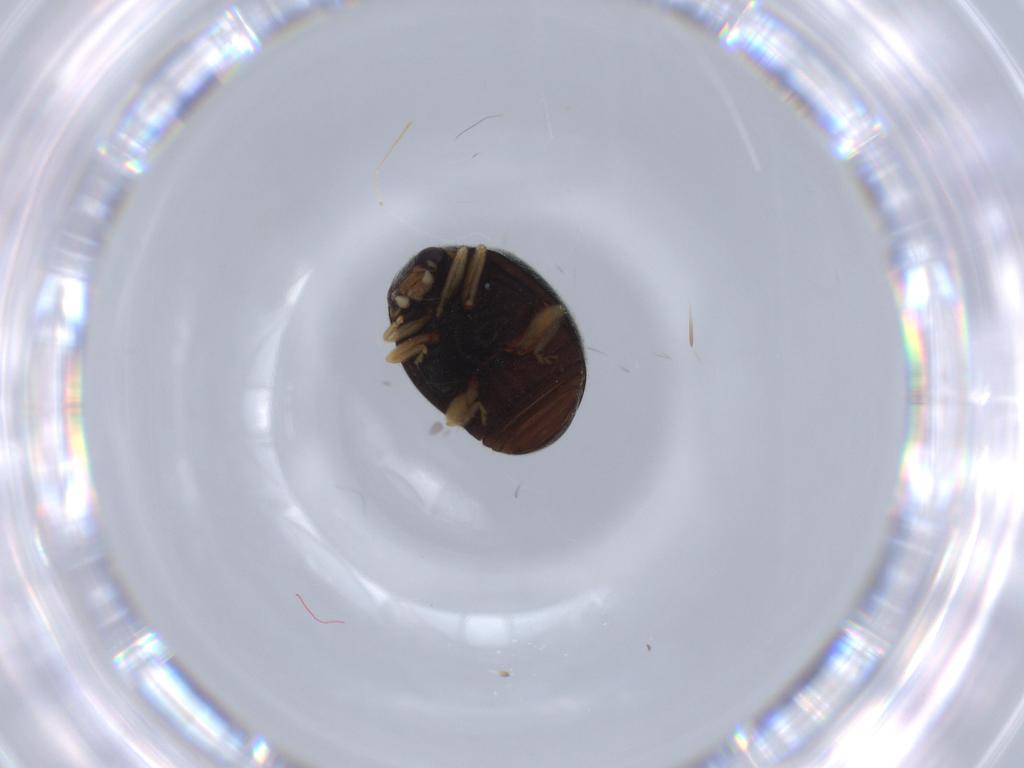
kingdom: Animalia
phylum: Arthropoda
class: Insecta
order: Coleoptera
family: Coccinellidae
